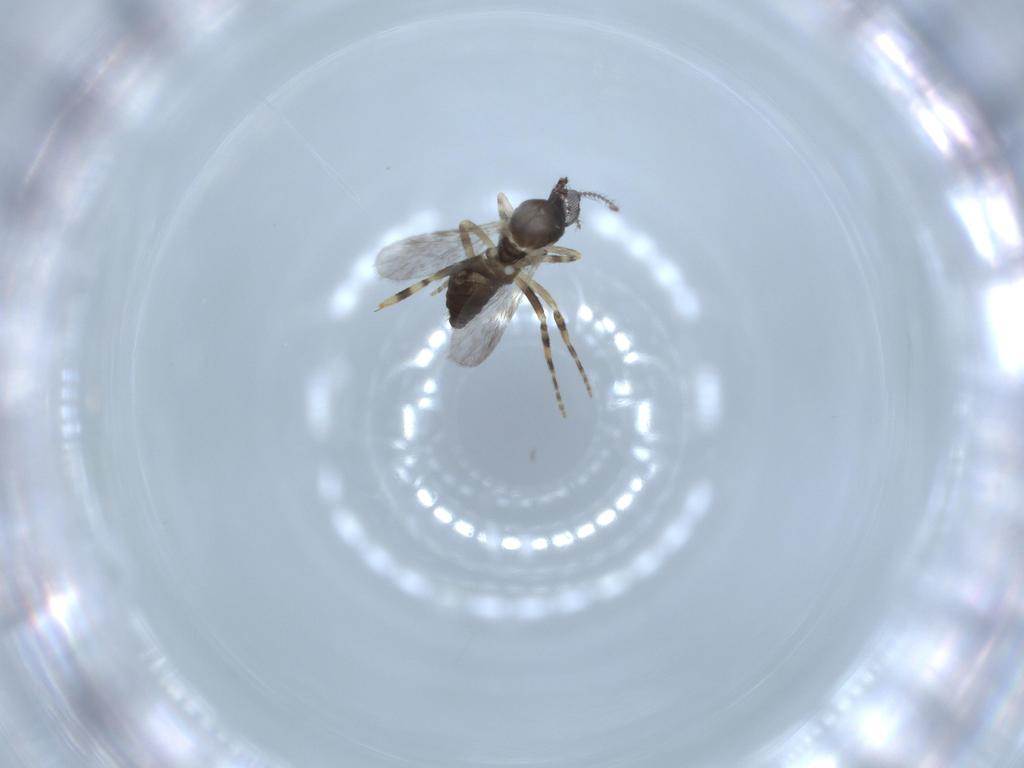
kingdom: Animalia
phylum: Arthropoda
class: Insecta
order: Diptera
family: Ceratopogonidae
